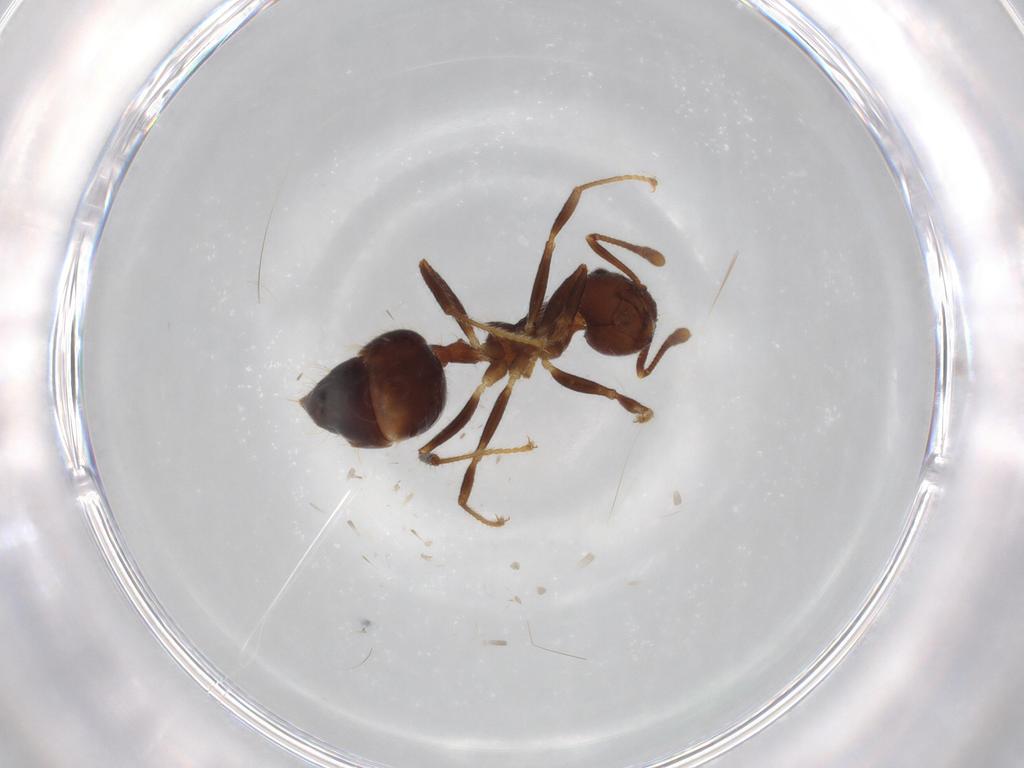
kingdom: Animalia
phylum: Arthropoda
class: Insecta
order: Hymenoptera
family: Formicidae
